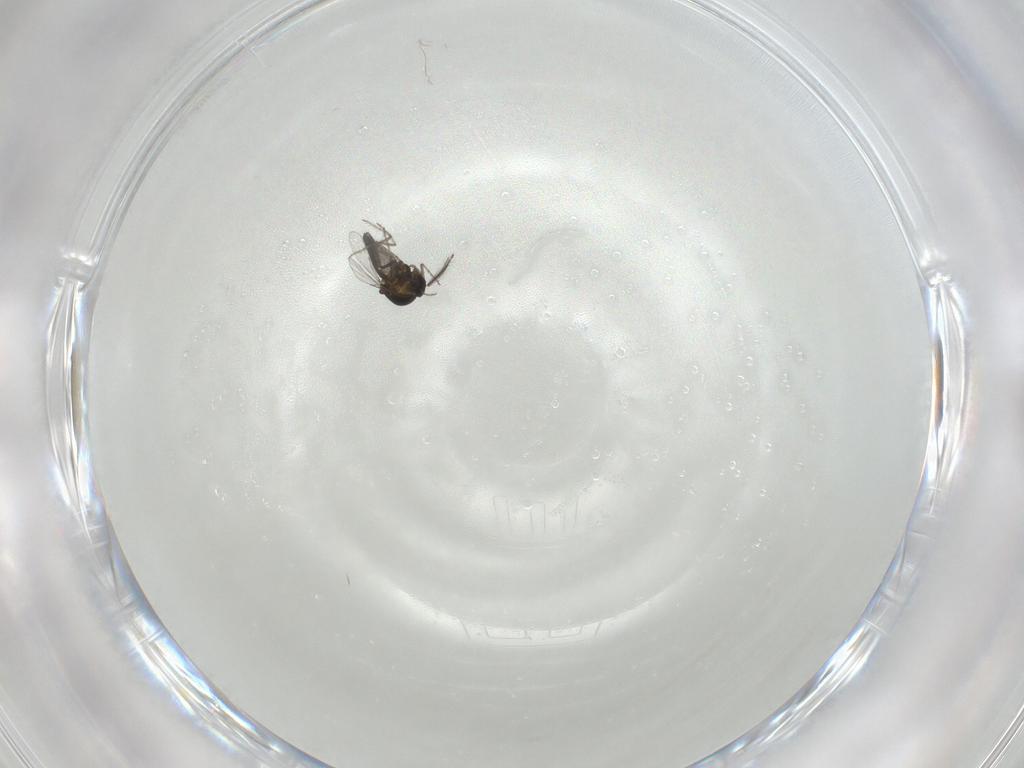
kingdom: Animalia
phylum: Arthropoda
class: Insecta
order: Diptera
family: Ceratopogonidae
